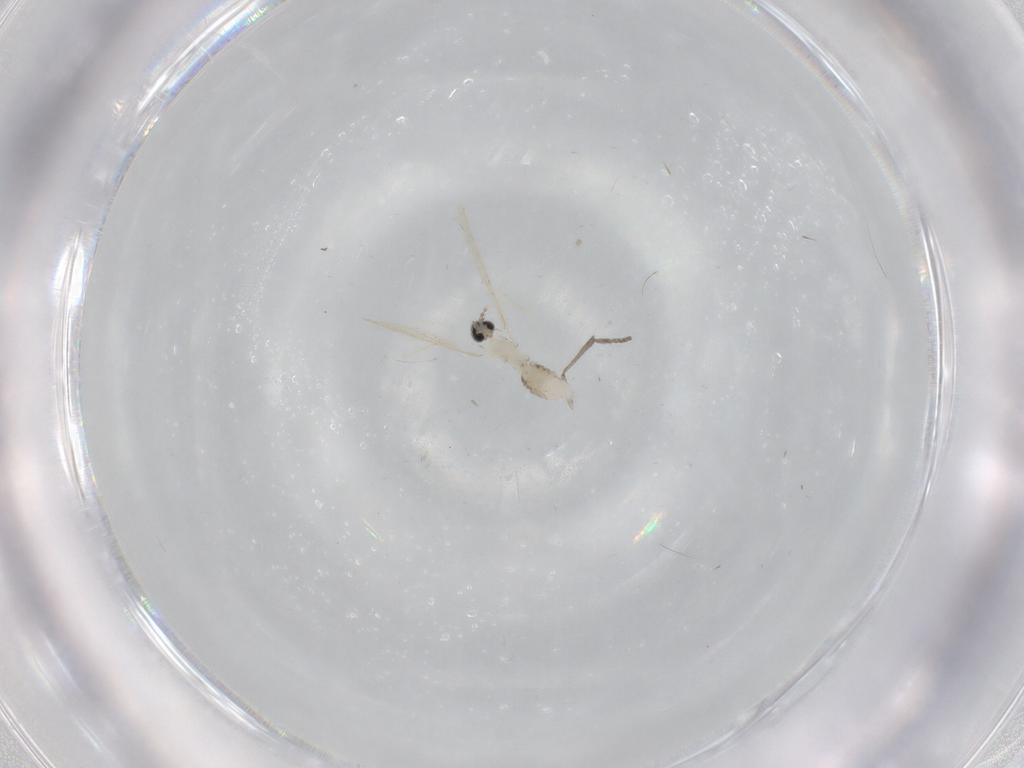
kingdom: Animalia
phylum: Arthropoda
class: Insecta
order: Diptera
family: Cecidomyiidae
